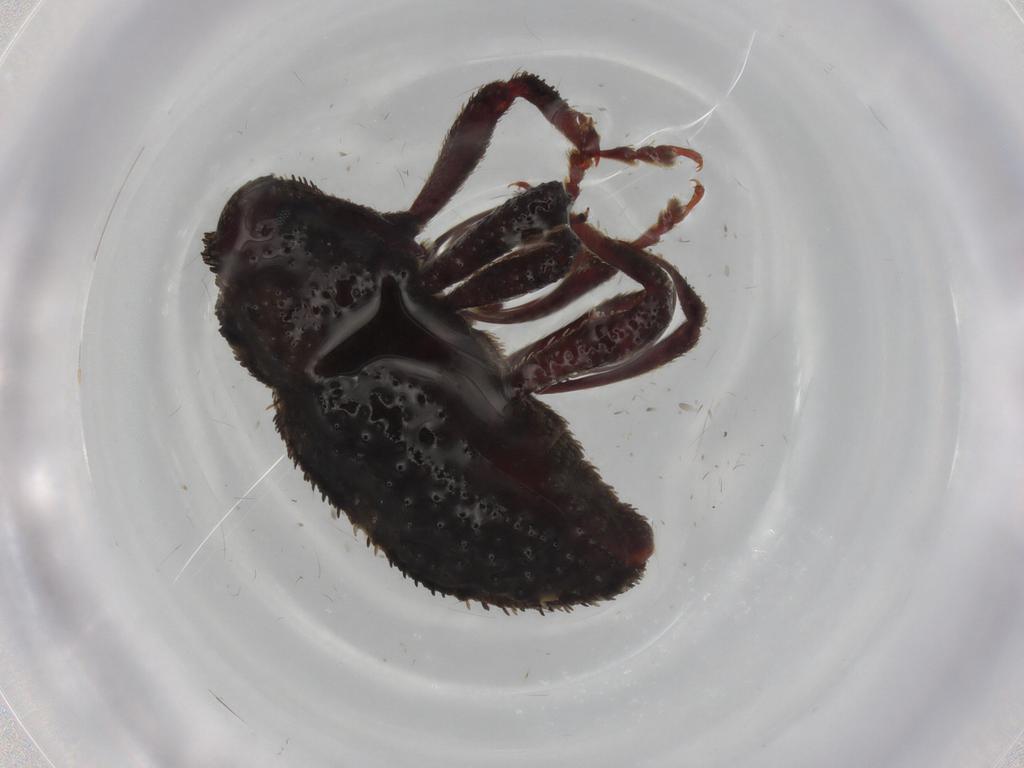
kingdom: Animalia
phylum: Arthropoda
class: Insecta
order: Coleoptera
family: Curculionidae
